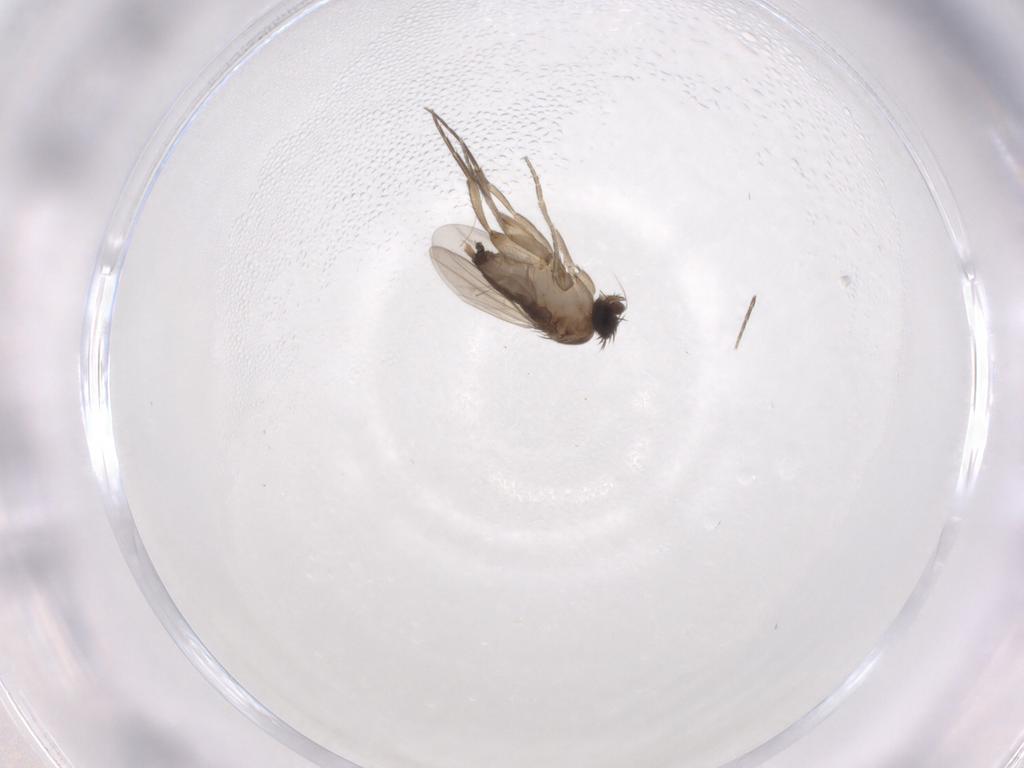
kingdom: Animalia
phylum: Arthropoda
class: Insecta
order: Diptera
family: Phoridae
